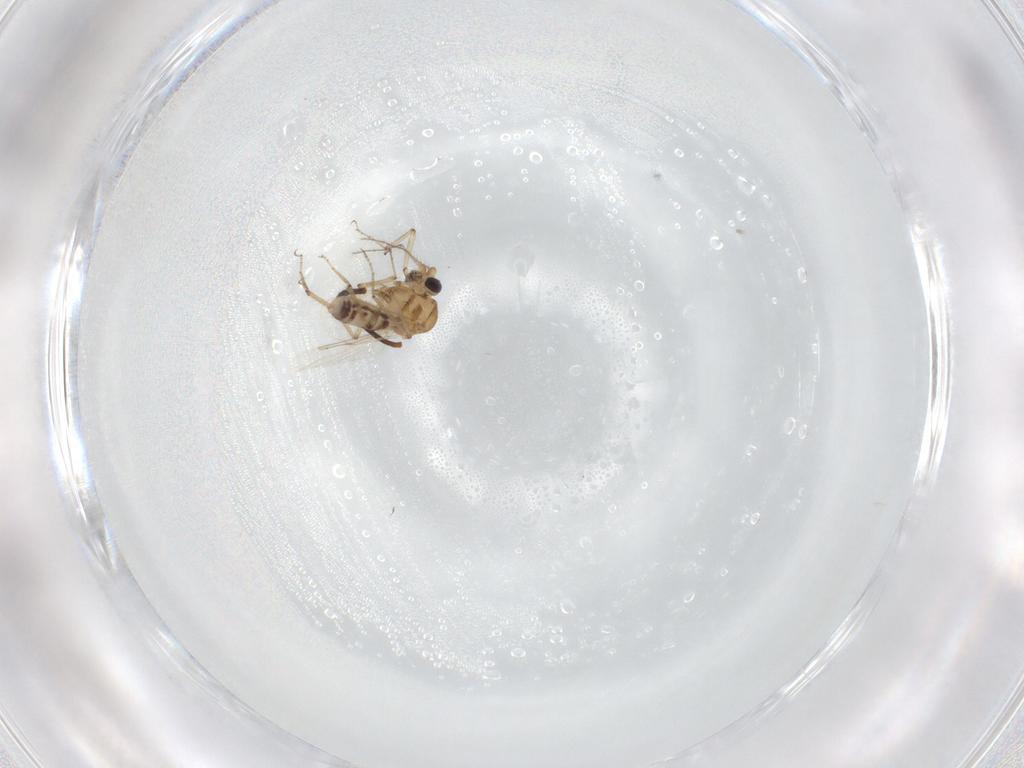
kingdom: Animalia
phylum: Arthropoda
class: Insecta
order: Diptera
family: Ceratopogonidae
